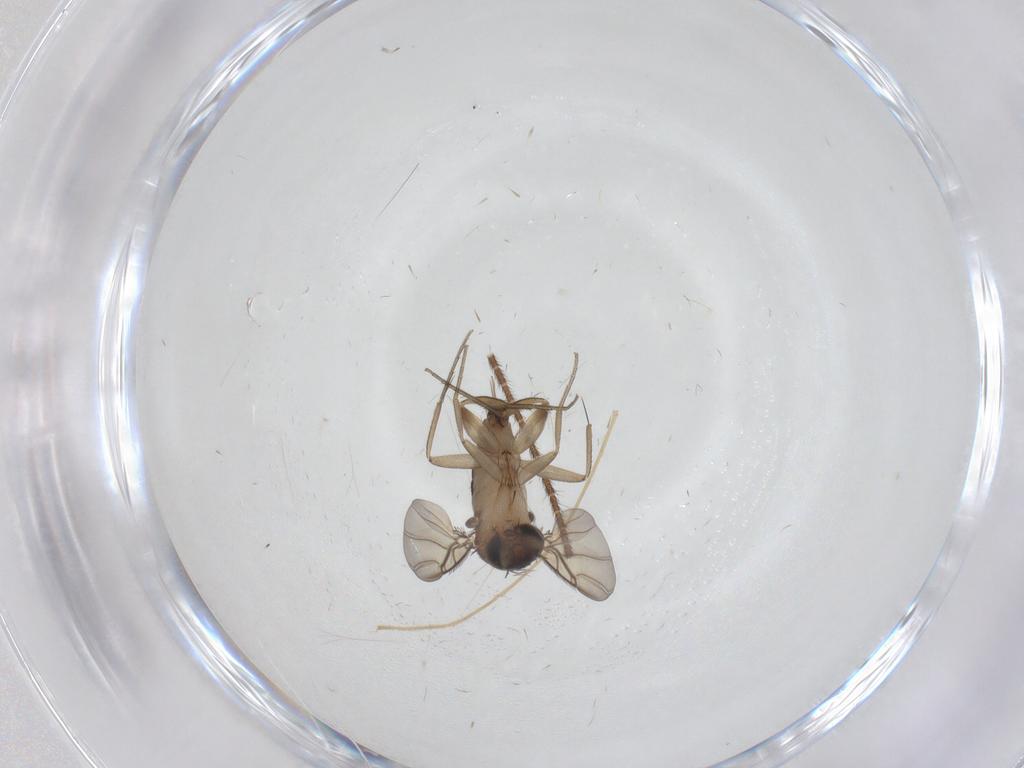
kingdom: Animalia
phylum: Arthropoda
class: Insecta
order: Diptera
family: Phoridae
